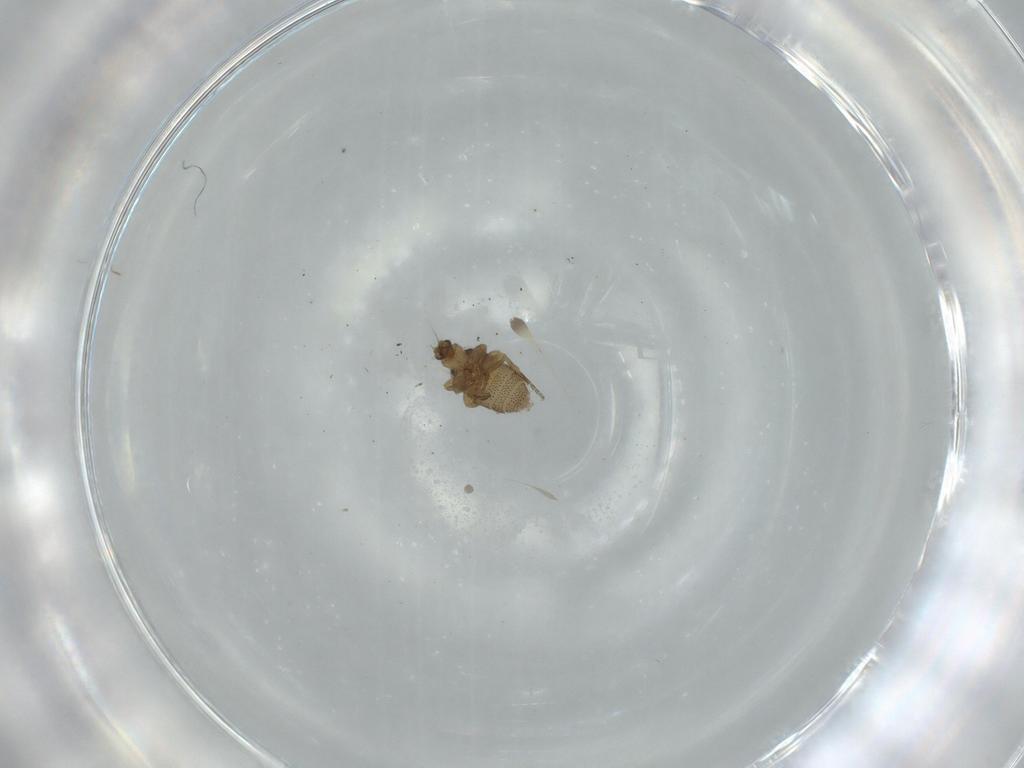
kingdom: Animalia
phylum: Arthropoda
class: Insecta
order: Diptera
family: Phoridae
